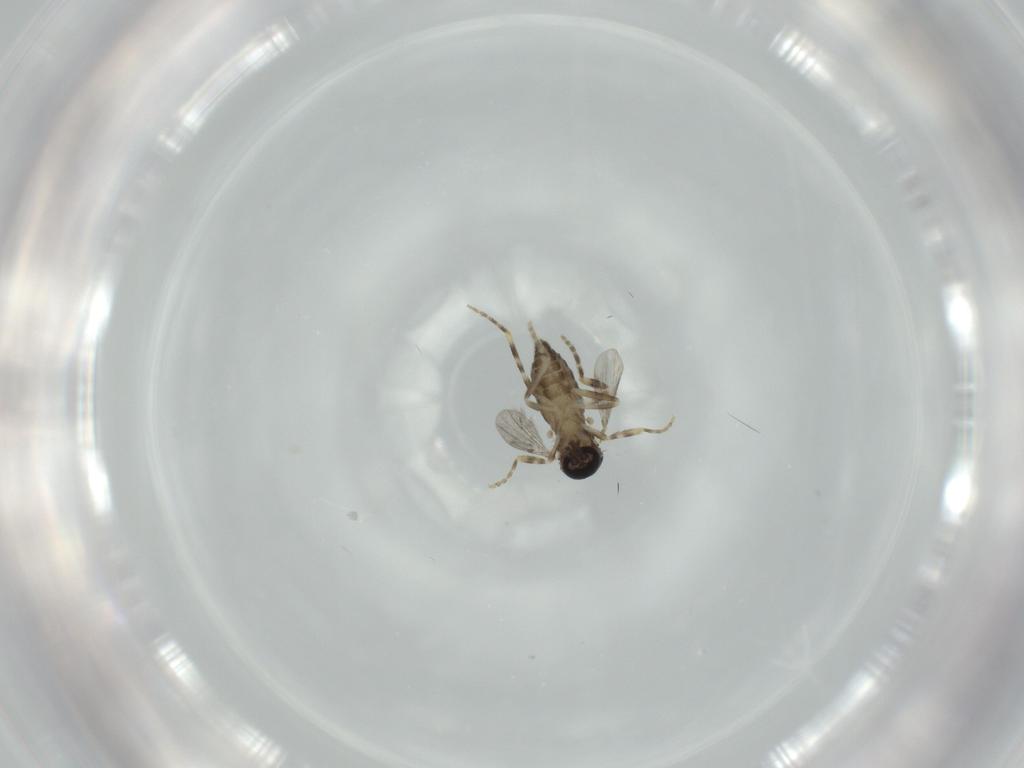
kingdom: Animalia
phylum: Arthropoda
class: Insecta
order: Diptera
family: Ceratopogonidae
